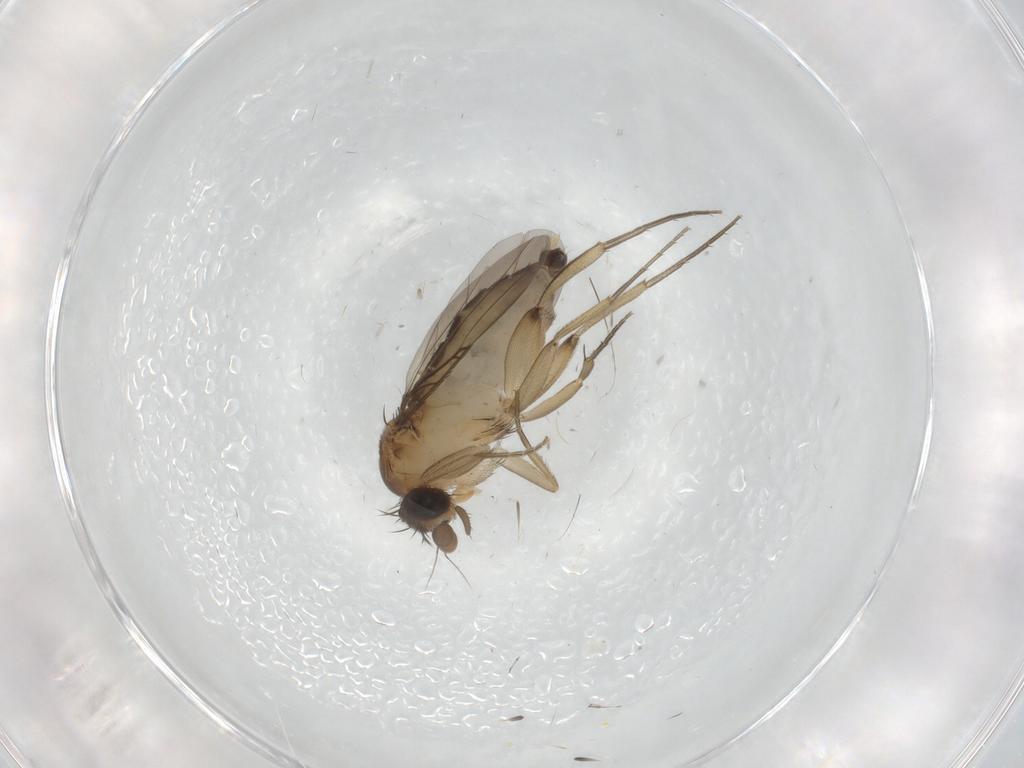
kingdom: Animalia
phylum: Arthropoda
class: Insecta
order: Diptera
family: Phoridae
